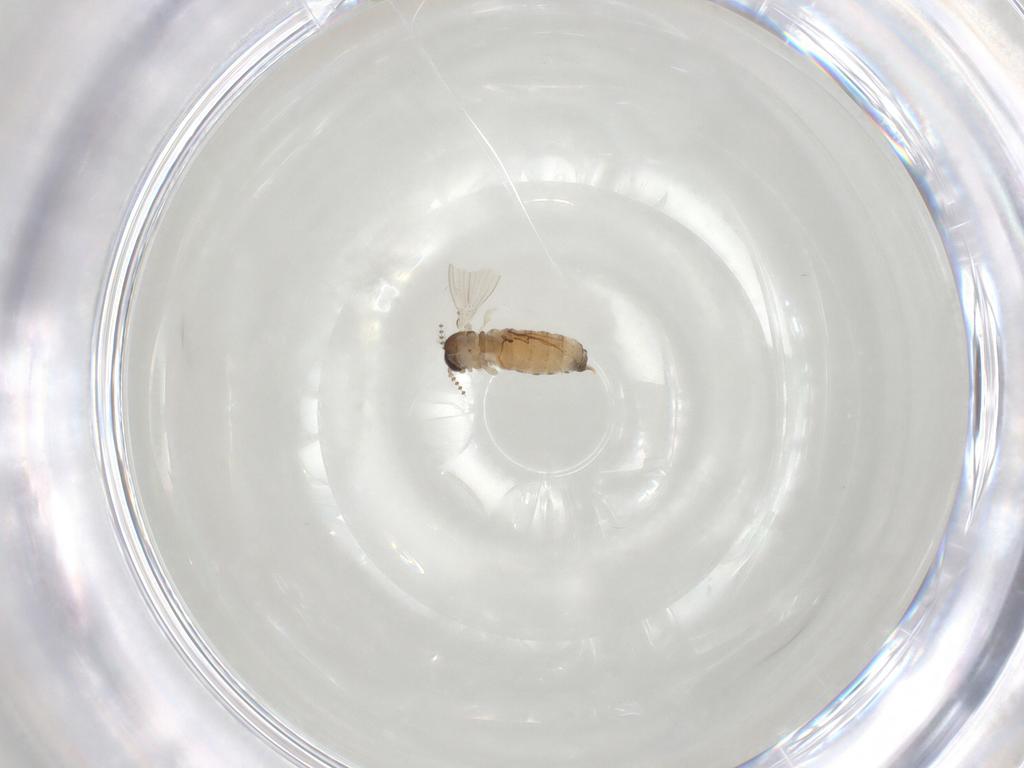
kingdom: Animalia
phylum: Arthropoda
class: Insecta
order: Diptera
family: Psychodidae
